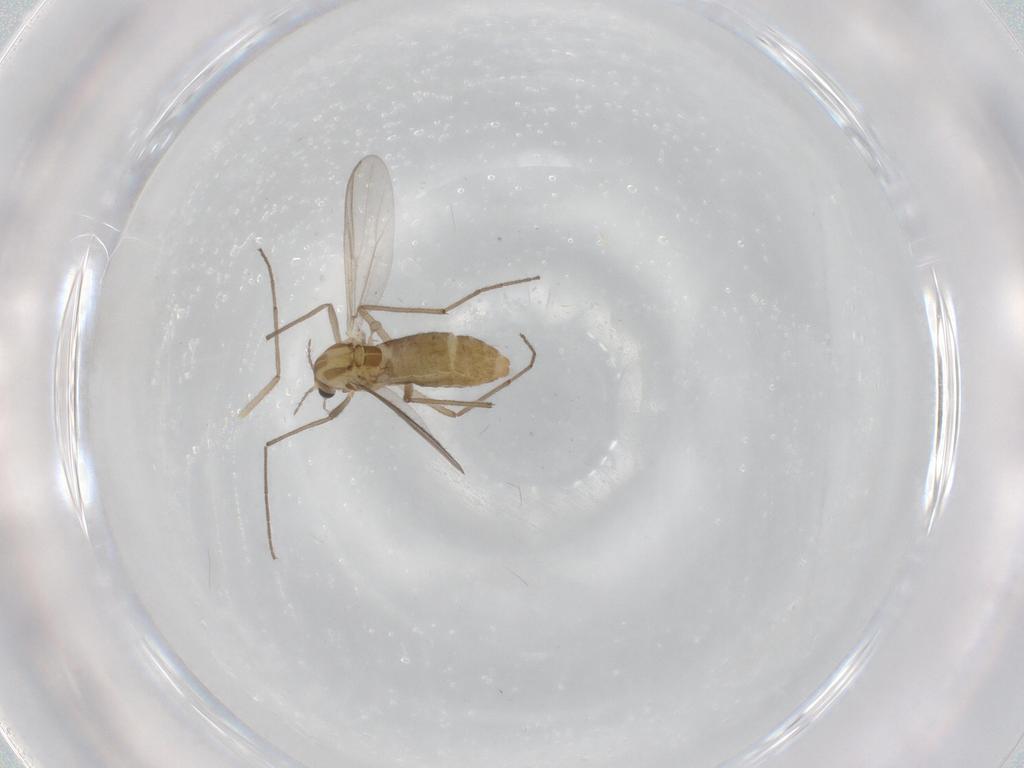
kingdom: Animalia
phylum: Arthropoda
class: Insecta
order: Diptera
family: Chironomidae
